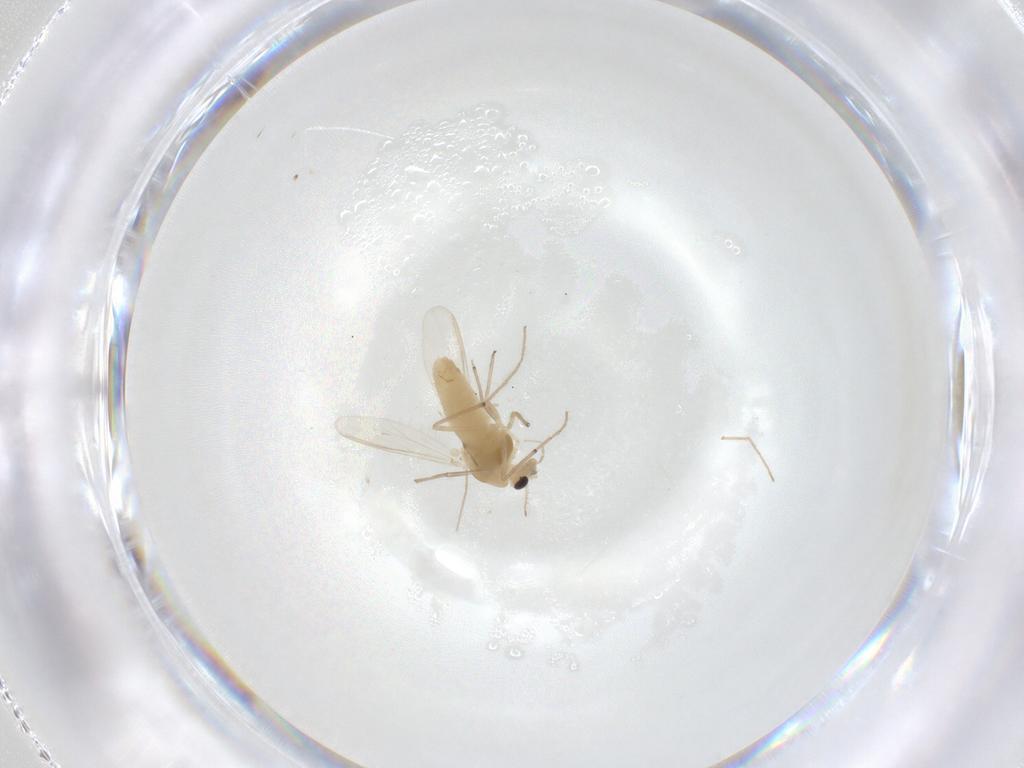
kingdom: Animalia
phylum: Arthropoda
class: Insecta
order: Diptera
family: Chironomidae
